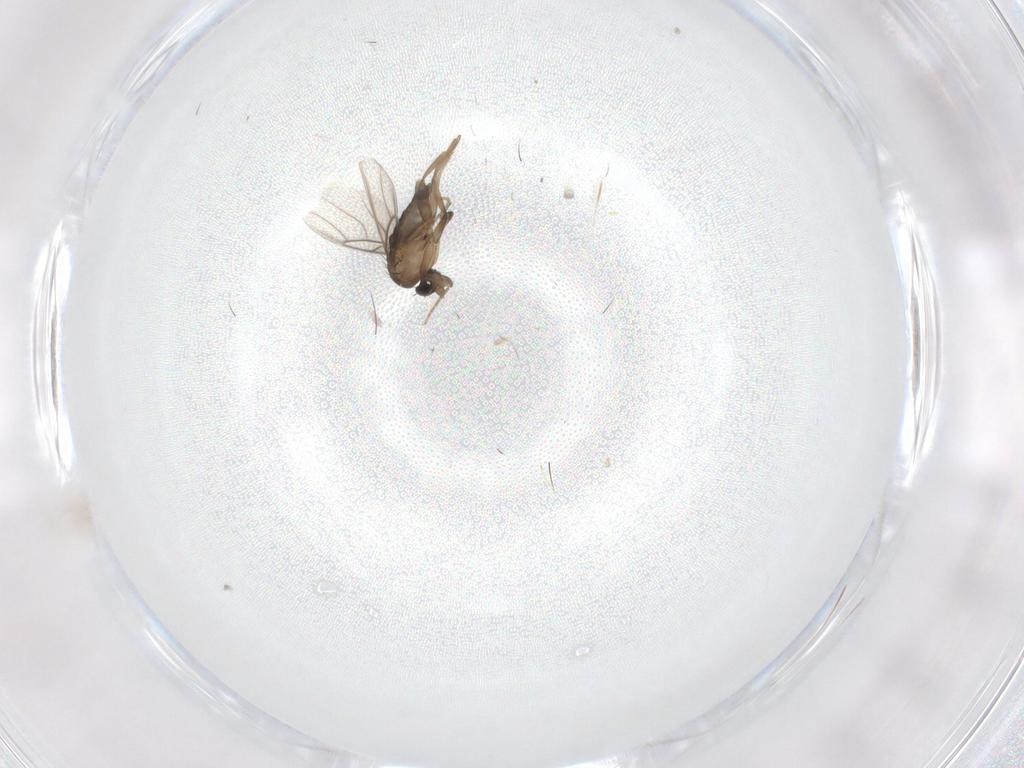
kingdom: Animalia
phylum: Arthropoda
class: Insecta
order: Diptera
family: Phoridae
